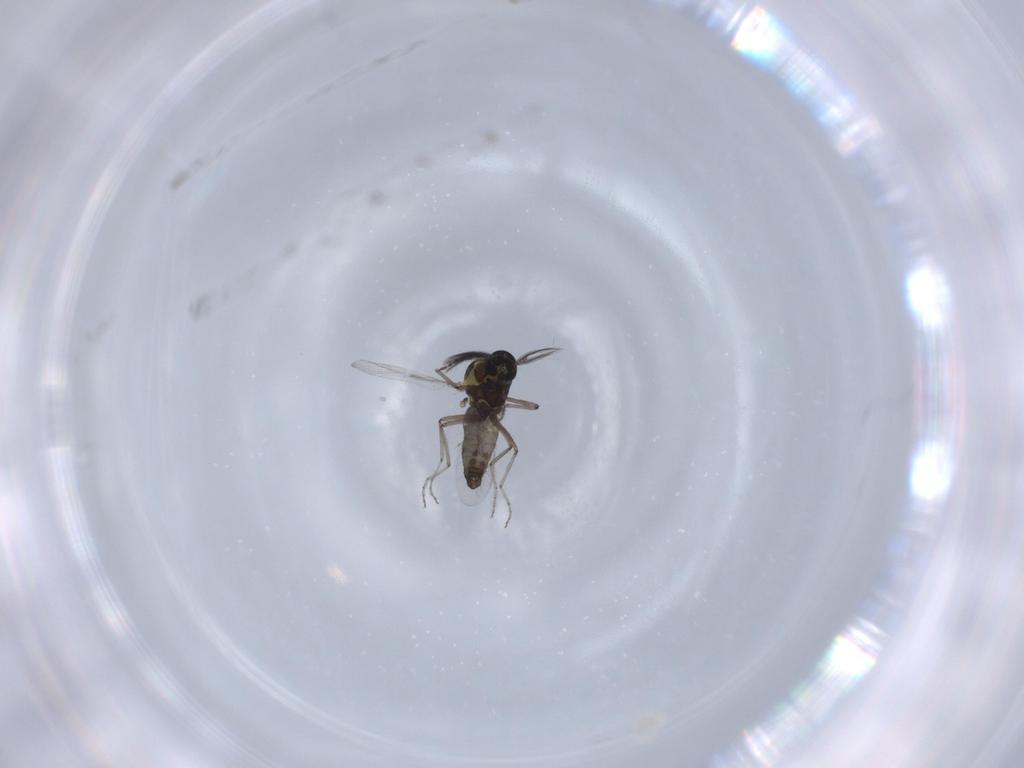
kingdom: Animalia
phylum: Arthropoda
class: Insecta
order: Diptera
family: Ceratopogonidae
